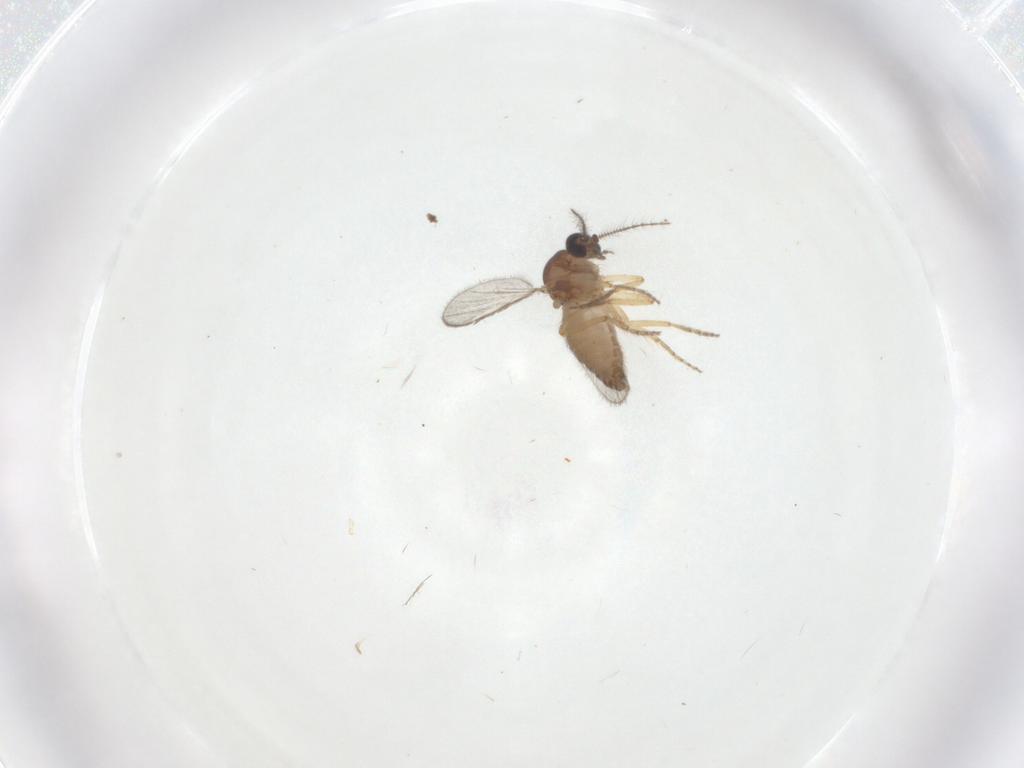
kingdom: Animalia
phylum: Arthropoda
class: Insecta
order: Diptera
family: Ceratopogonidae
